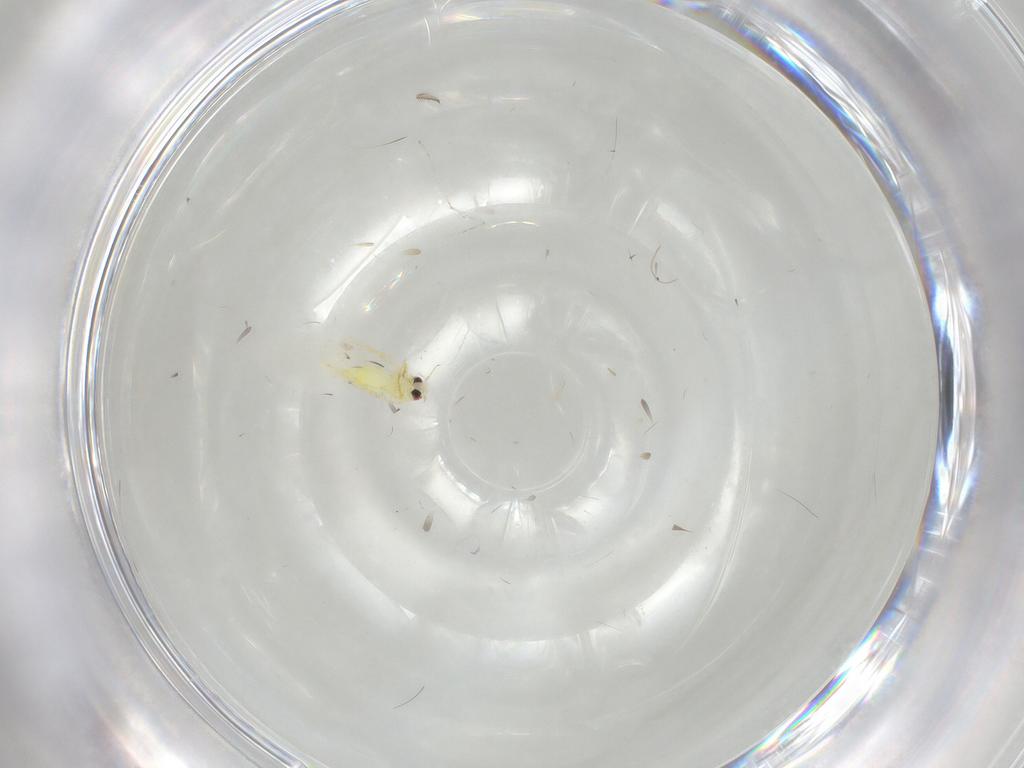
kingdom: Animalia
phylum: Arthropoda
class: Insecta
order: Hemiptera
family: Aleyrodidae
